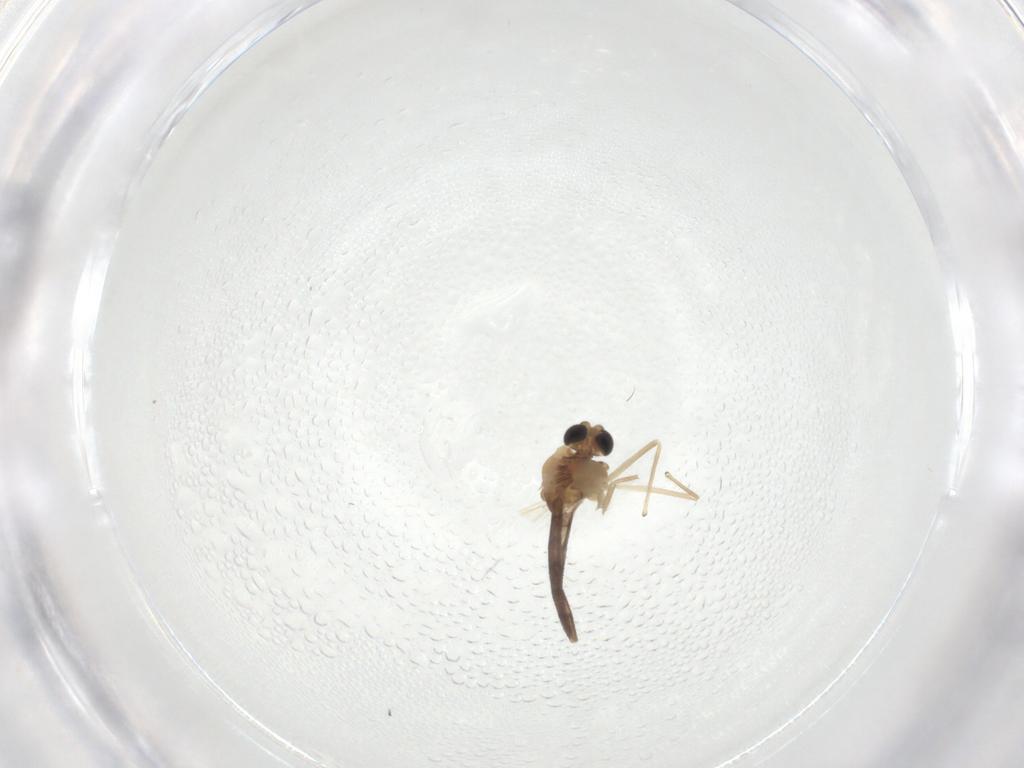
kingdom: Animalia
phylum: Arthropoda
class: Insecta
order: Diptera
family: Chironomidae
